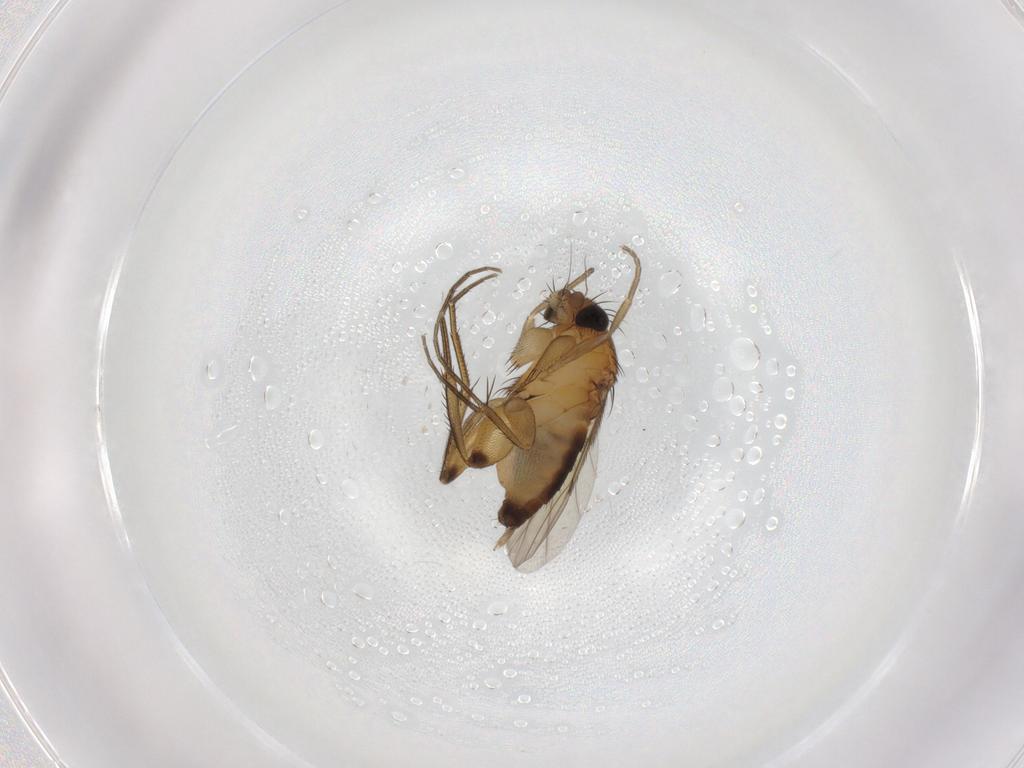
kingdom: Animalia
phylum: Arthropoda
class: Insecta
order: Diptera
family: Phoridae
